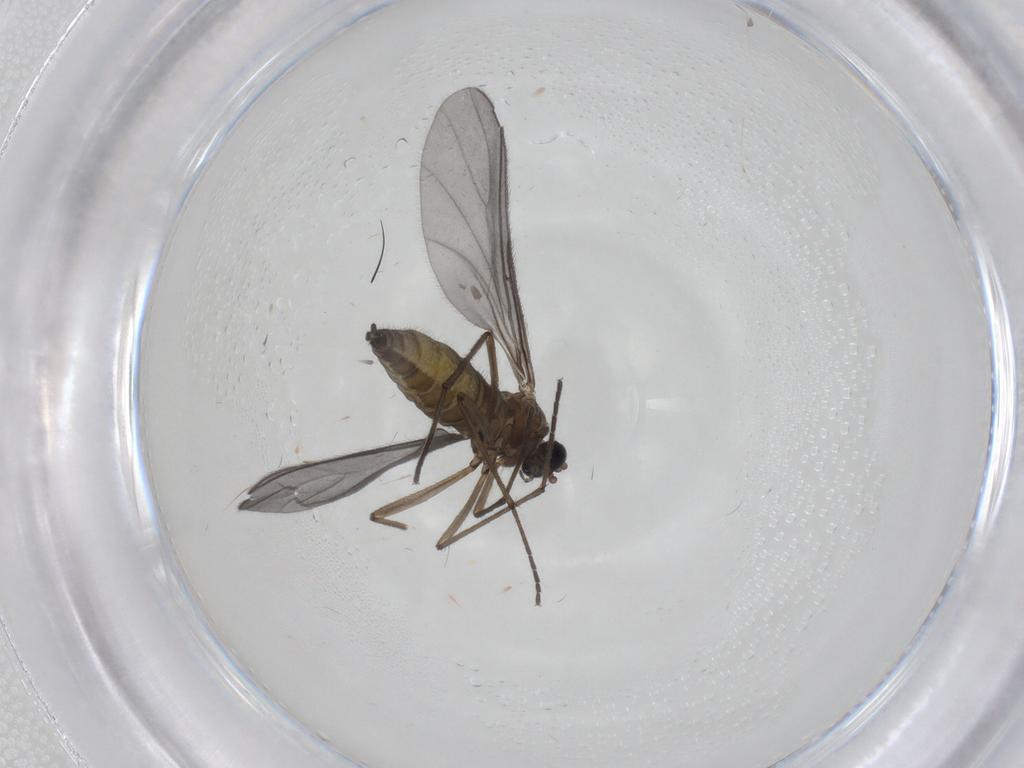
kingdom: Animalia
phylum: Arthropoda
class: Insecta
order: Diptera
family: Sciaridae
